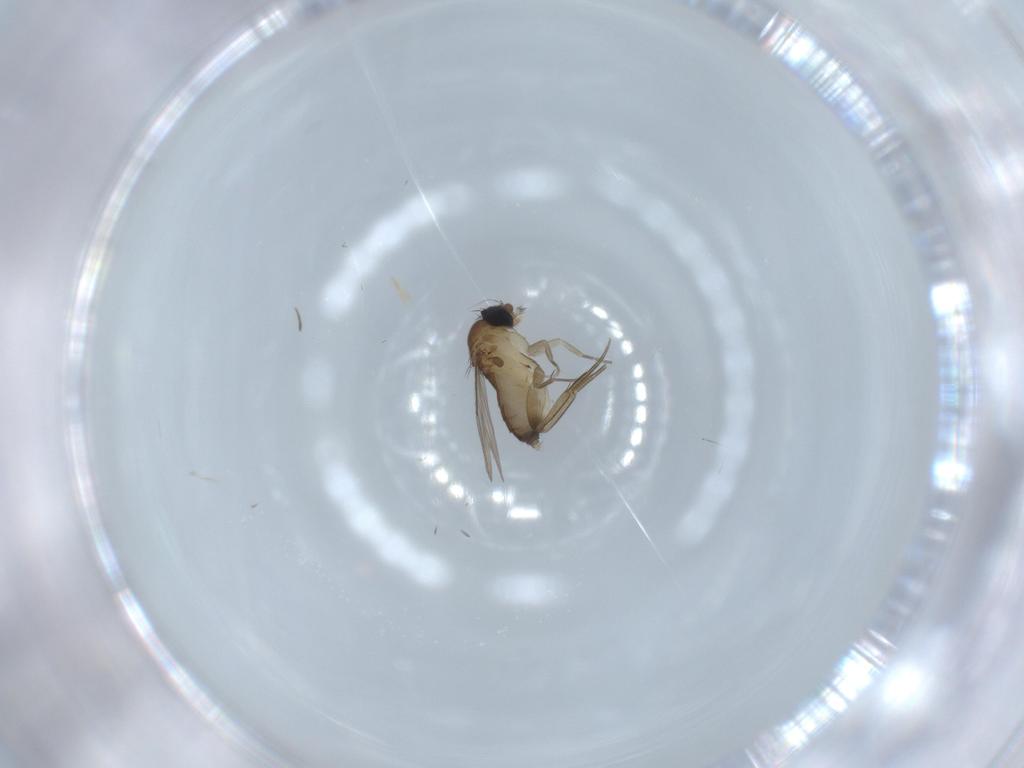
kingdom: Animalia
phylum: Arthropoda
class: Insecta
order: Diptera
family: Phoridae
